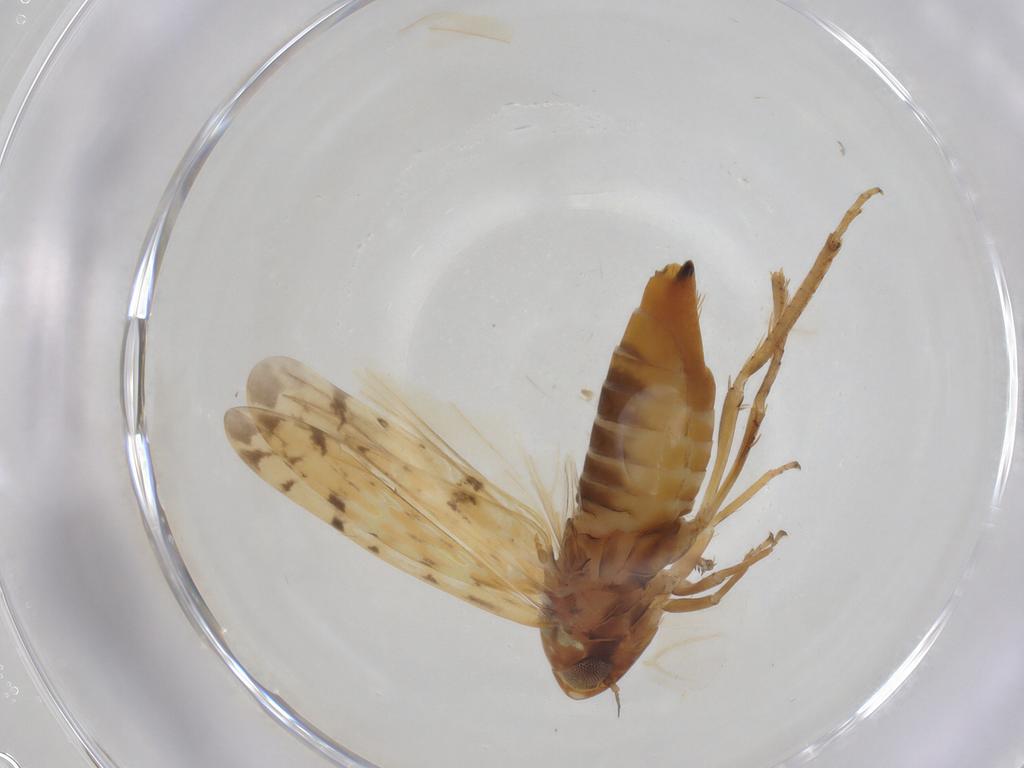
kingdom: Animalia
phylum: Arthropoda
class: Insecta
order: Hemiptera
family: Cicadellidae
